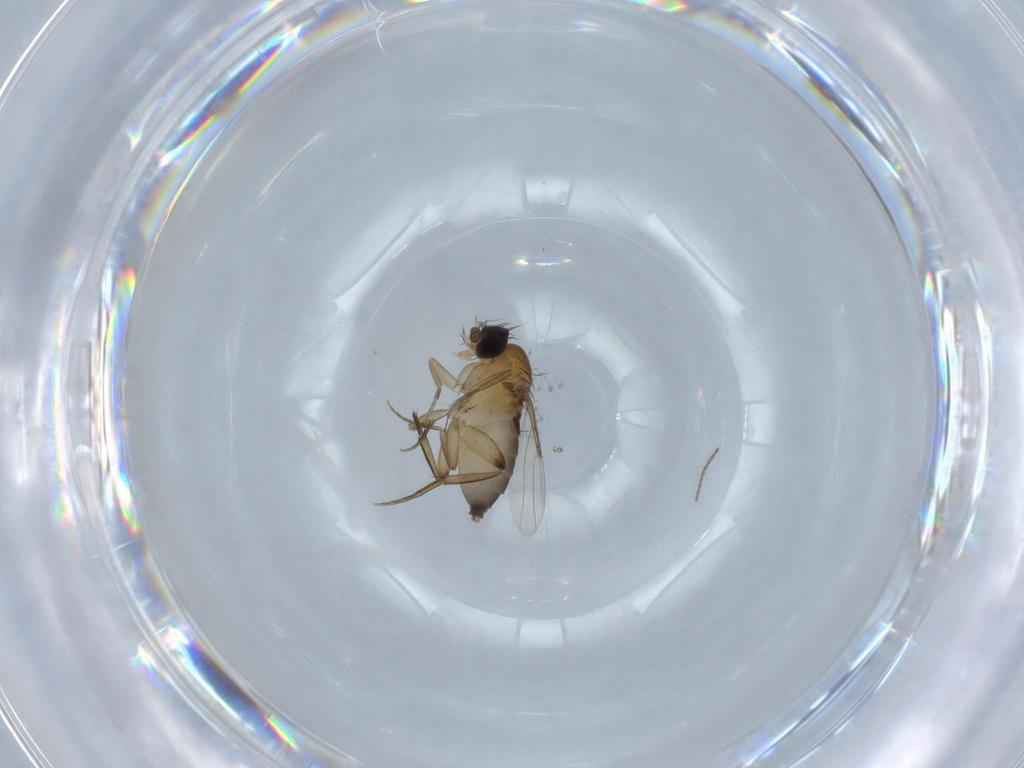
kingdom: Animalia
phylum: Arthropoda
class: Insecta
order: Diptera
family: Phoridae
